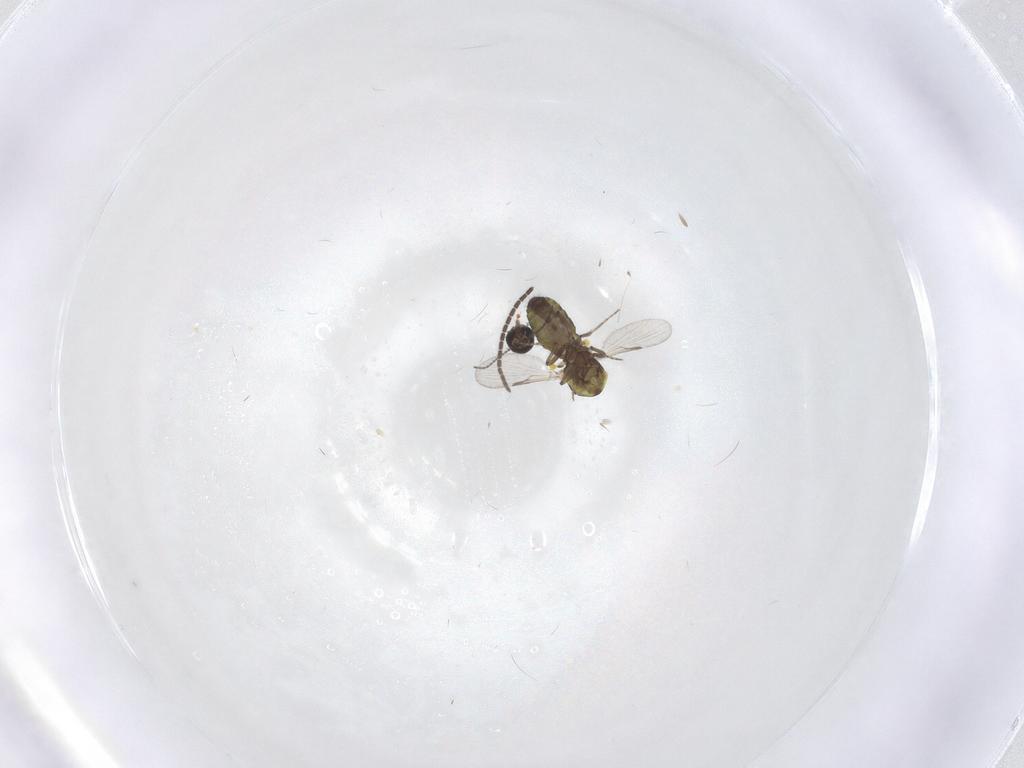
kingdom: Animalia
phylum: Arthropoda
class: Insecta
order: Diptera
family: Ceratopogonidae
